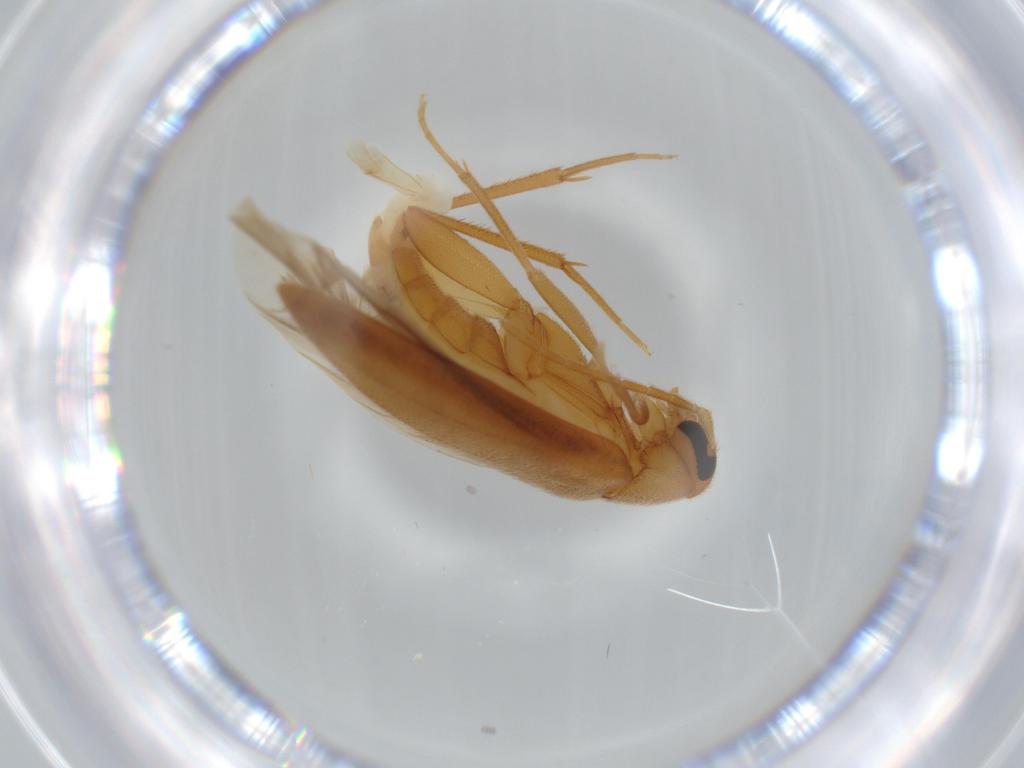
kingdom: Animalia
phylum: Arthropoda
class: Insecta
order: Coleoptera
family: Scraptiidae
